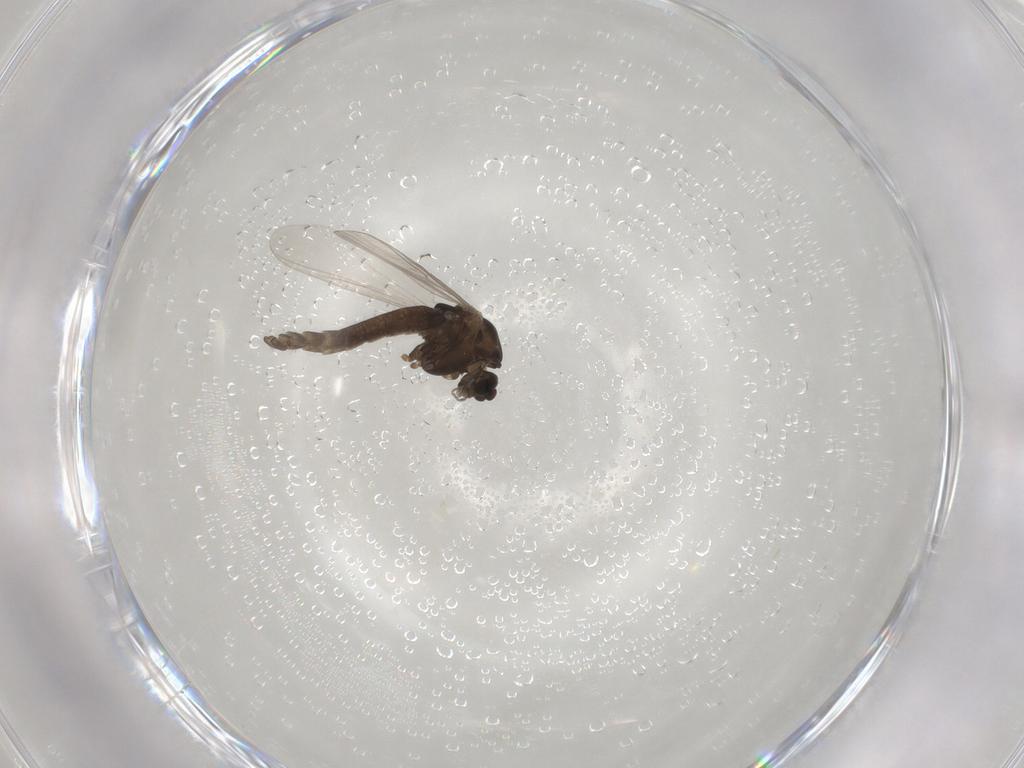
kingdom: Animalia
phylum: Arthropoda
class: Insecta
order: Diptera
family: Chironomidae
